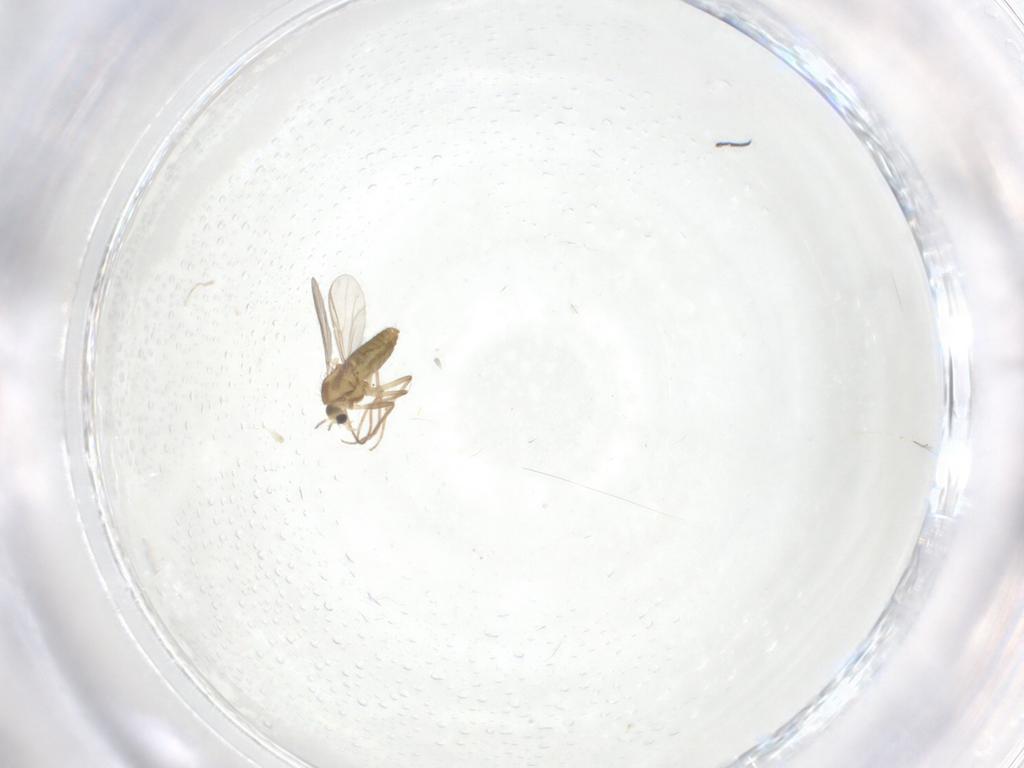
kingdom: Animalia
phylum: Arthropoda
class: Insecta
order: Diptera
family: Chironomidae
